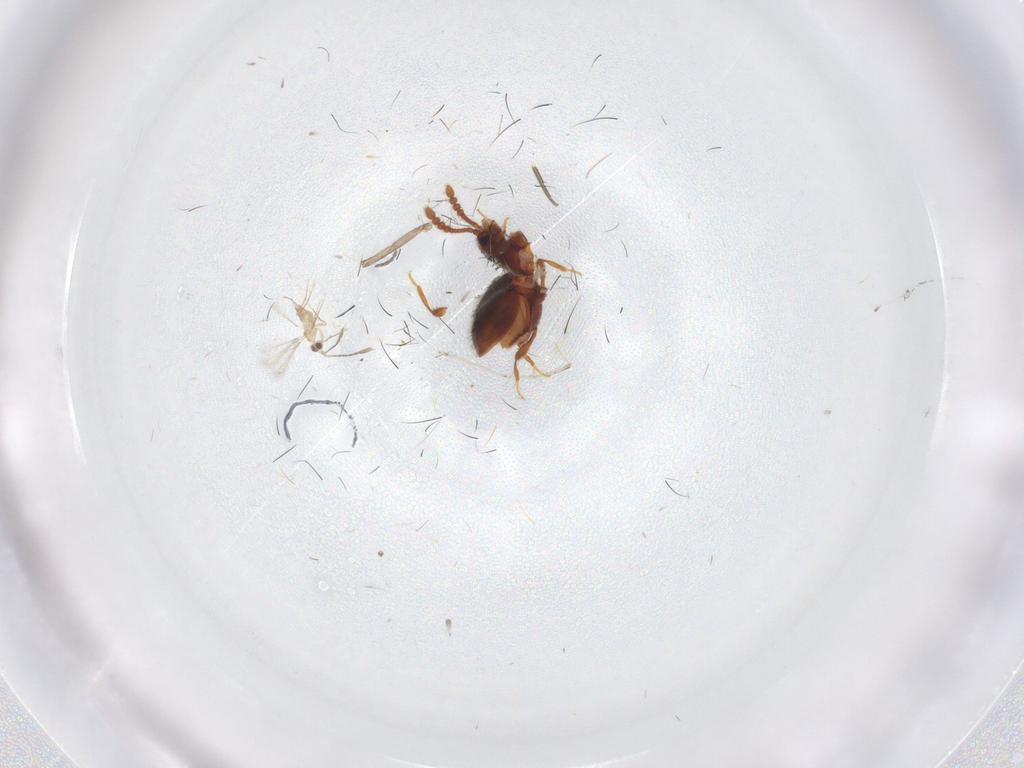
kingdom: Animalia
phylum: Arthropoda
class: Insecta
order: Coleoptera
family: Staphylinidae
